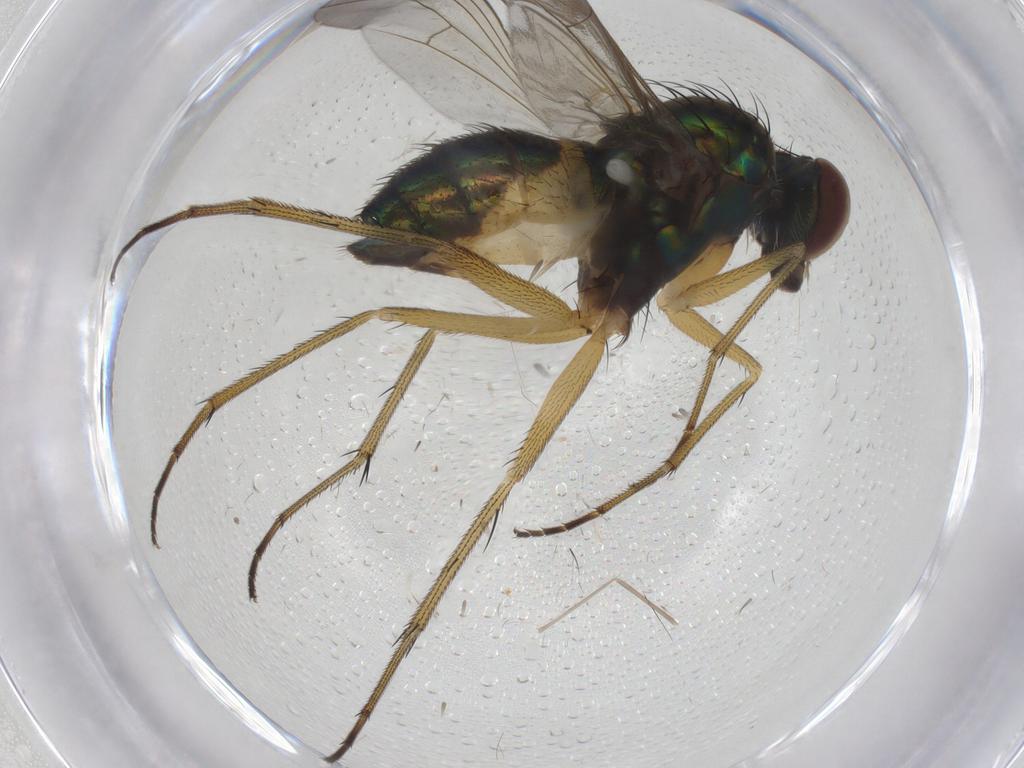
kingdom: Animalia
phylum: Arthropoda
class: Insecta
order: Diptera
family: Dolichopodidae
